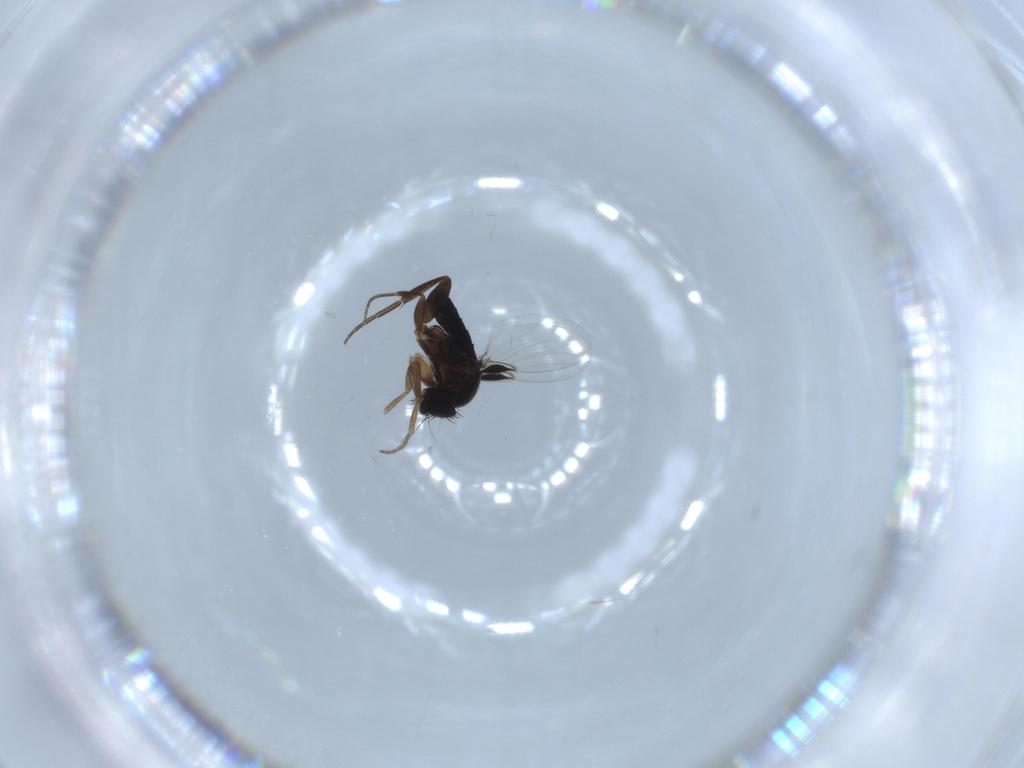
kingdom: Animalia
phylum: Arthropoda
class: Insecta
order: Diptera
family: Phoridae
